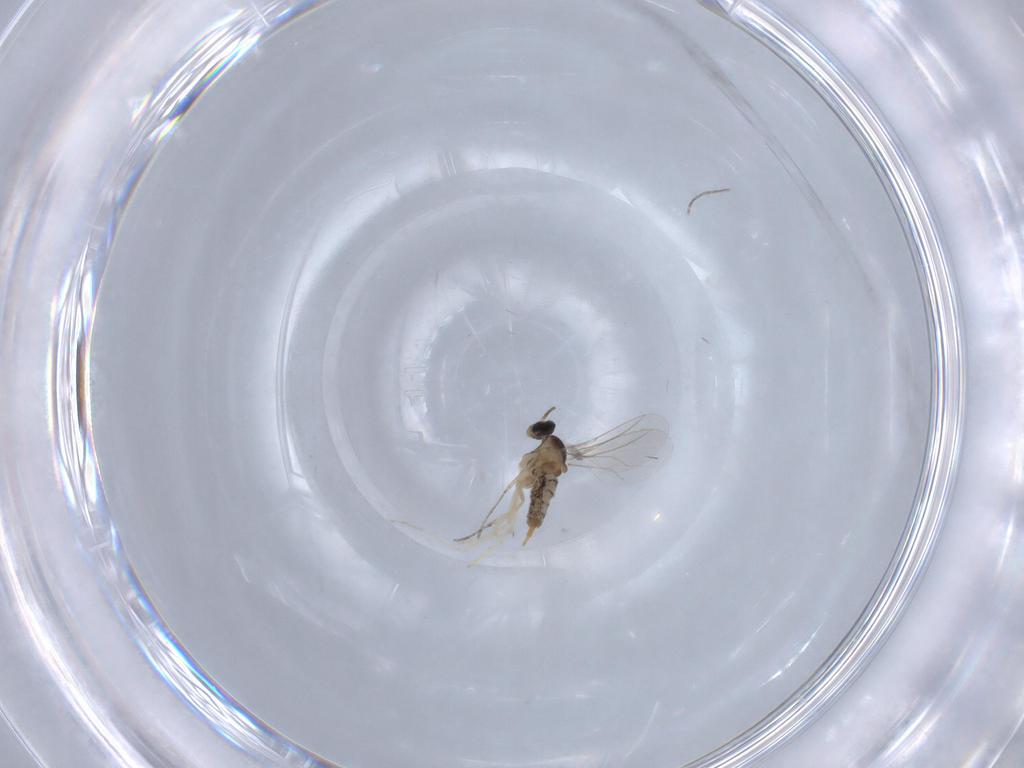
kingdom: Animalia
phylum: Arthropoda
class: Insecta
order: Diptera
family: Cecidomyiidae
